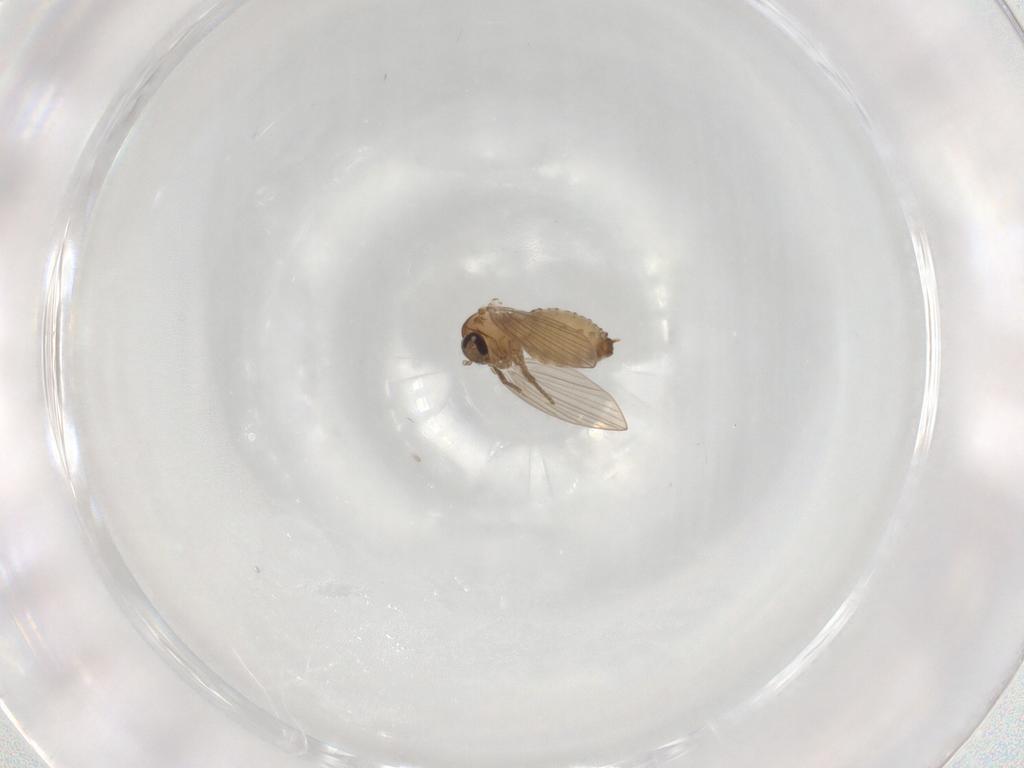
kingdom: Animalia
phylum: Arthropoda
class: Insecta
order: Diptera
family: Psychodidae
